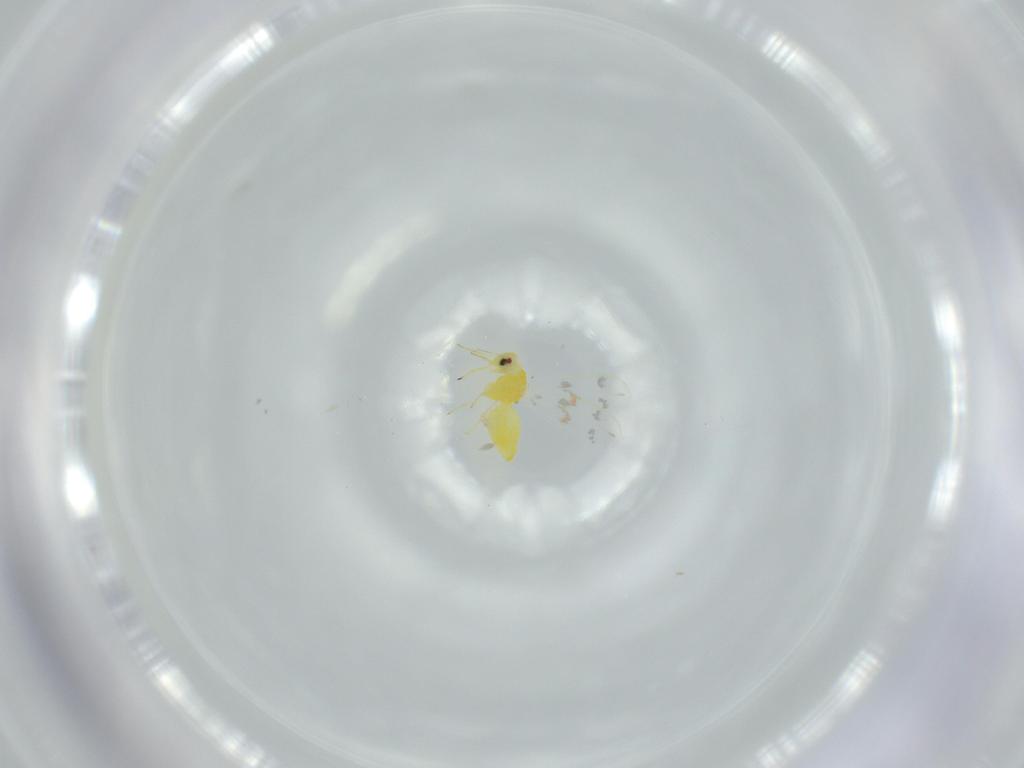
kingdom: Animalia
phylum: Arthropoda
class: Insecta
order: Hemiptera
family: Aleyrodidae
